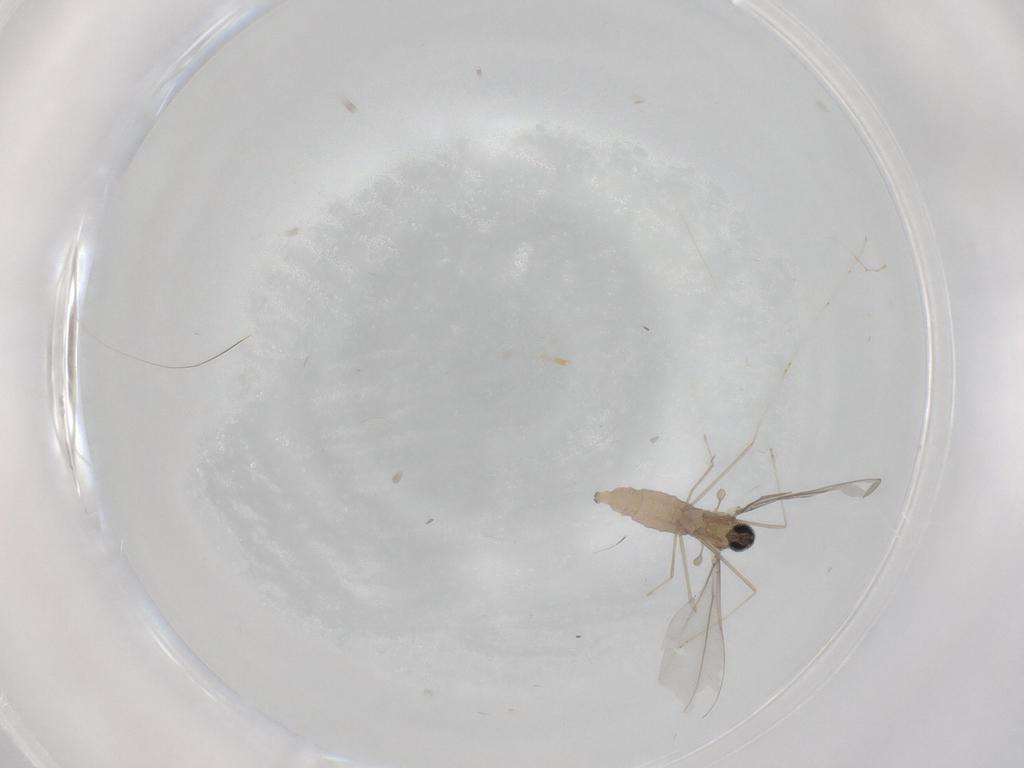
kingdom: Animalia
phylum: Arthropoda
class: Insecta
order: Diptera
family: Cecidomyiidae
